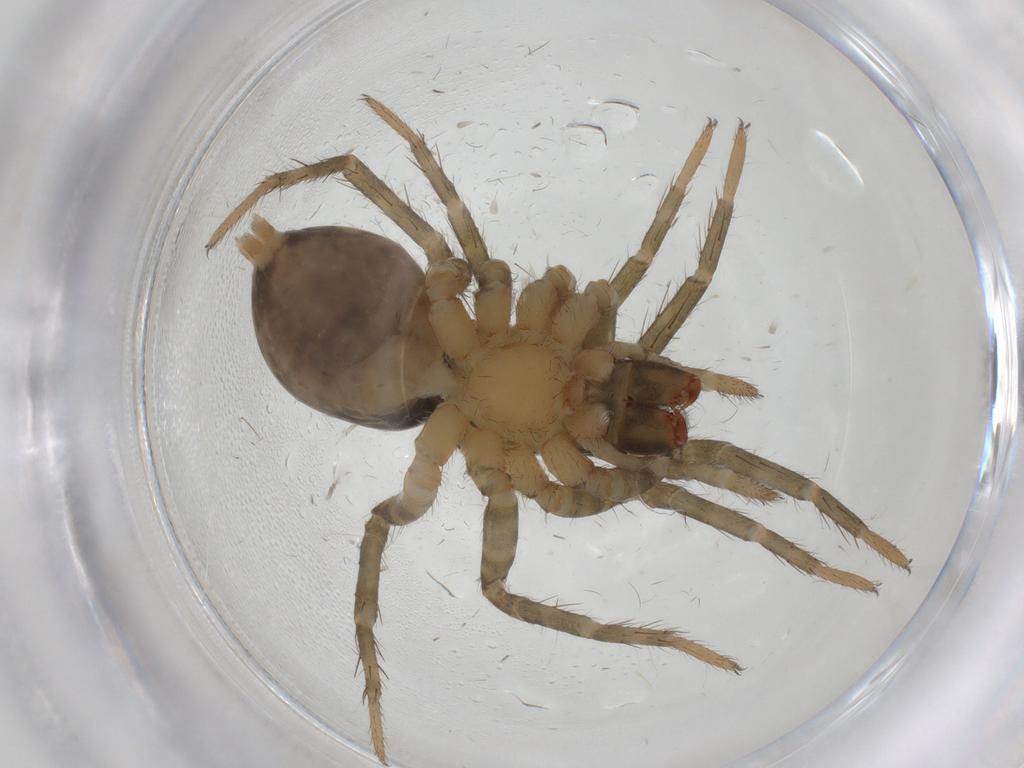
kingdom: Animalia
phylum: Arthropoda
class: Arachnida
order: Araneae
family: Lycosidae
